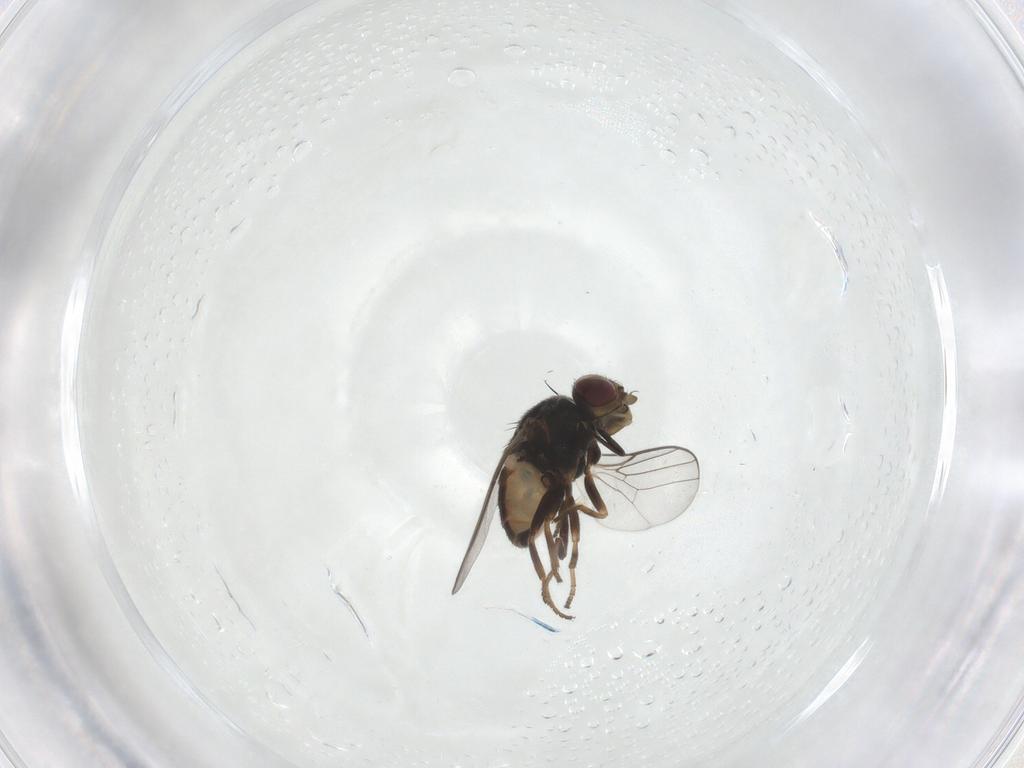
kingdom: Animalia
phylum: Arthropoda
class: Insecta
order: Diptera
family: Chloropidae
